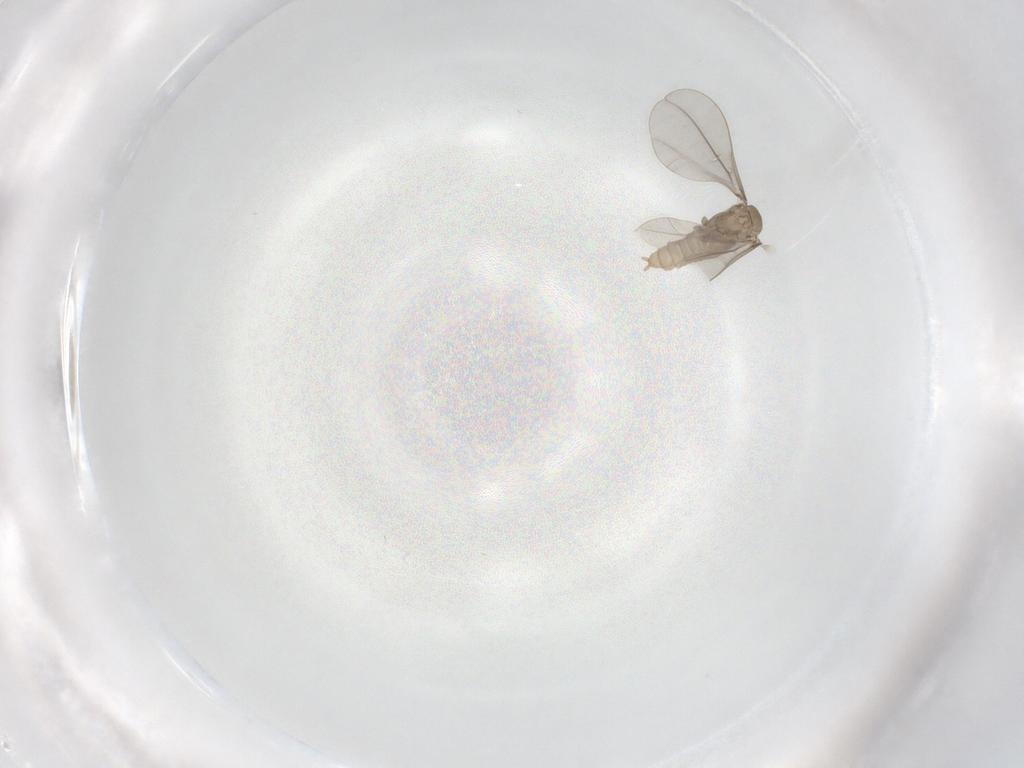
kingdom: Animalia
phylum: Arthropoda
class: Insecta
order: Diptera
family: Cecidomyiidae
